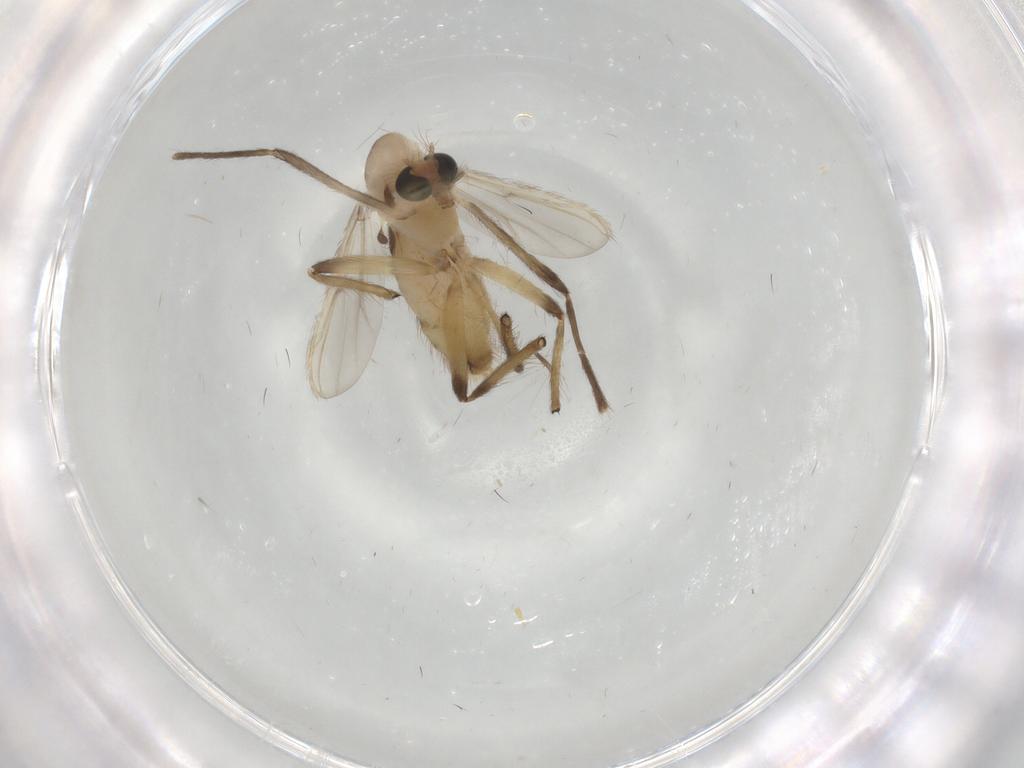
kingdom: Animalia
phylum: Arthropoda
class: Insecta
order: Diptera
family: Chironomidae
